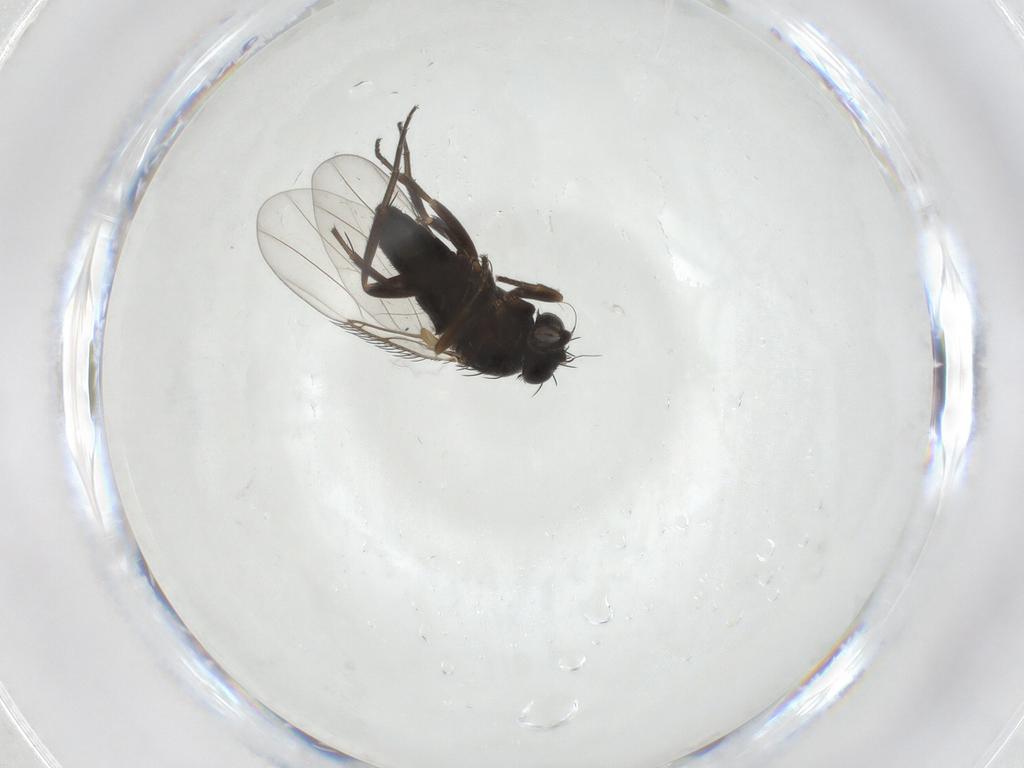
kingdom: Animalia
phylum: Arthropoda
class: Insecta
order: Diptera
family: Phoridae
